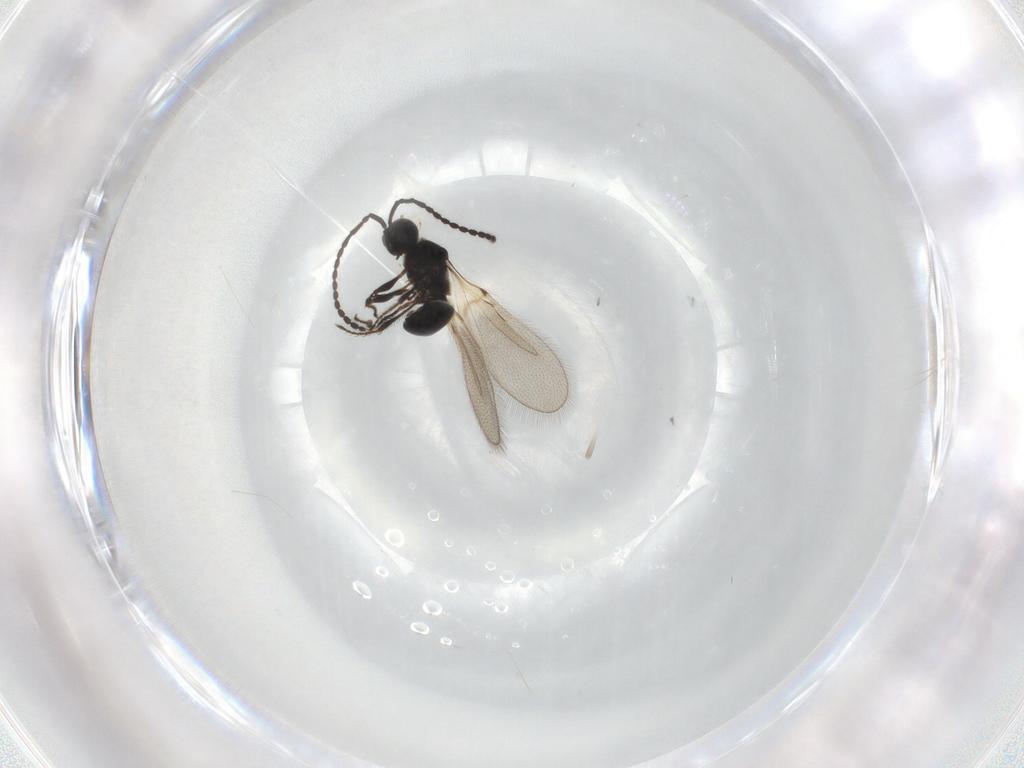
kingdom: Animalia
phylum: Arthropoda
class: Insecta
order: Hymenoptera
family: Diapriidae
